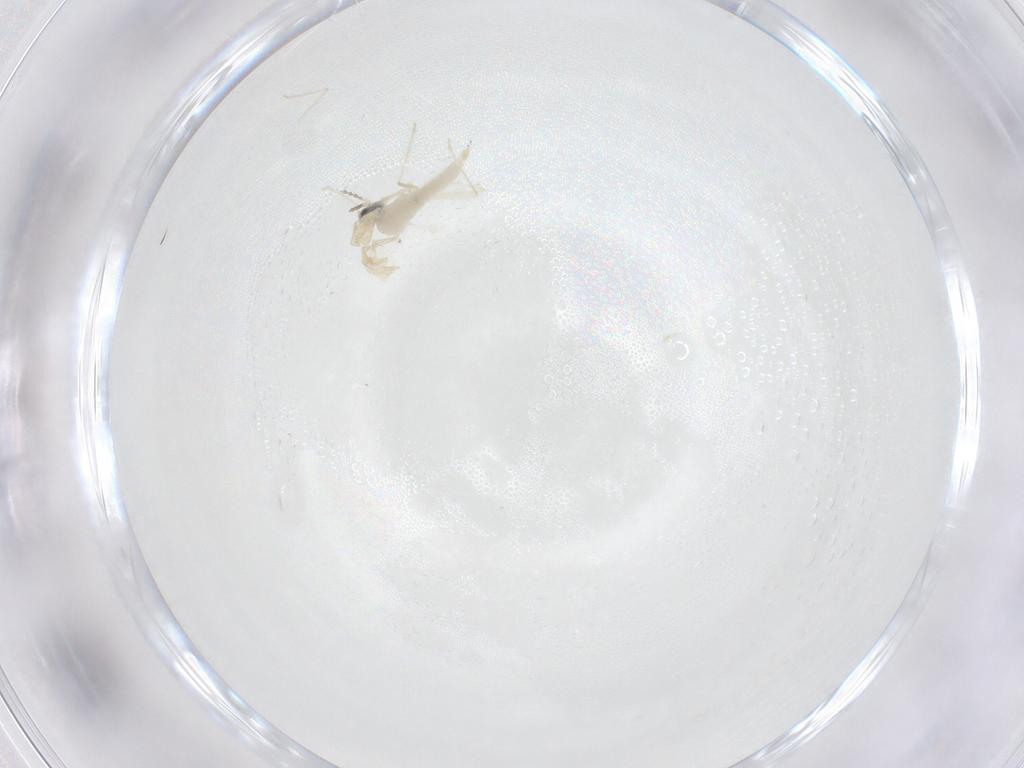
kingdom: Animalia
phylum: Arthropoda
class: Insecta
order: Diptera
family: Cecidomyiidae
